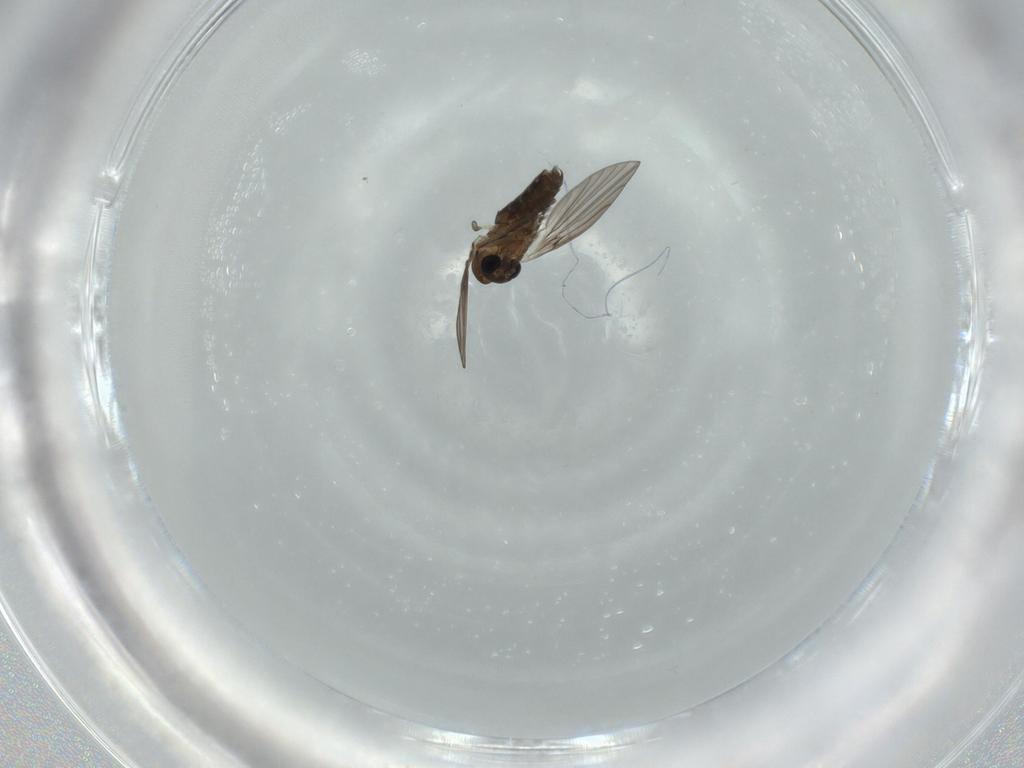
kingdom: Animalia
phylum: Arthropoda
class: Insecta
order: Diptera
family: Psychodidae
